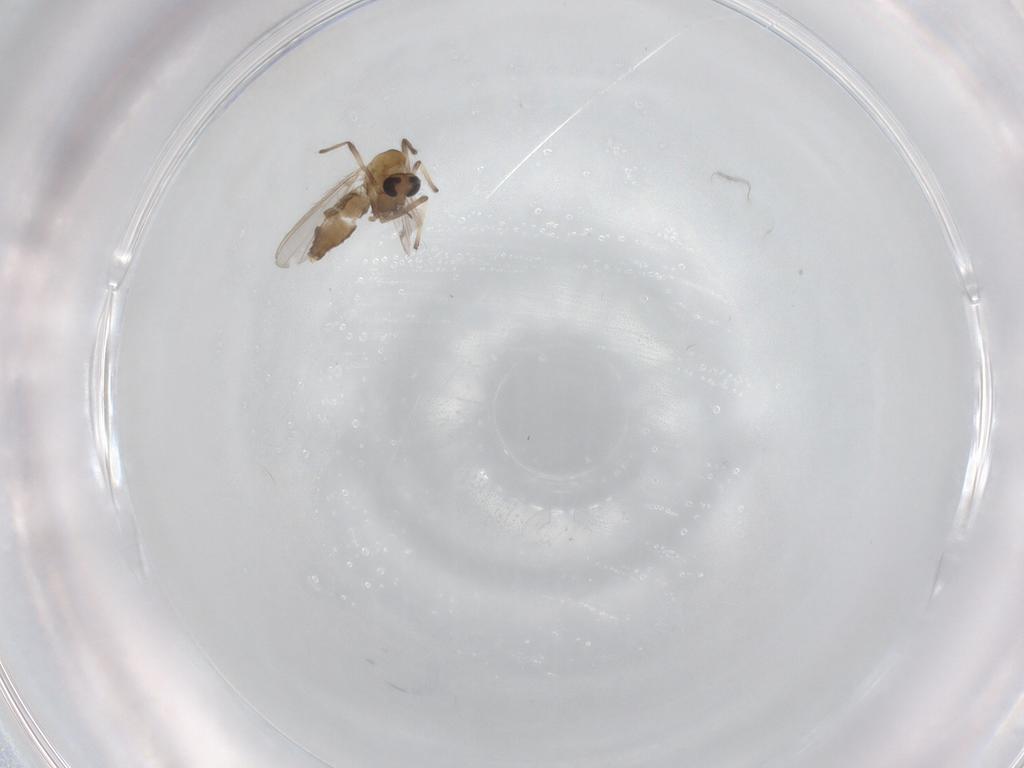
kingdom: Animalia
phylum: Arthropoda
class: Insecta
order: Diptera
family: Chironomidae
